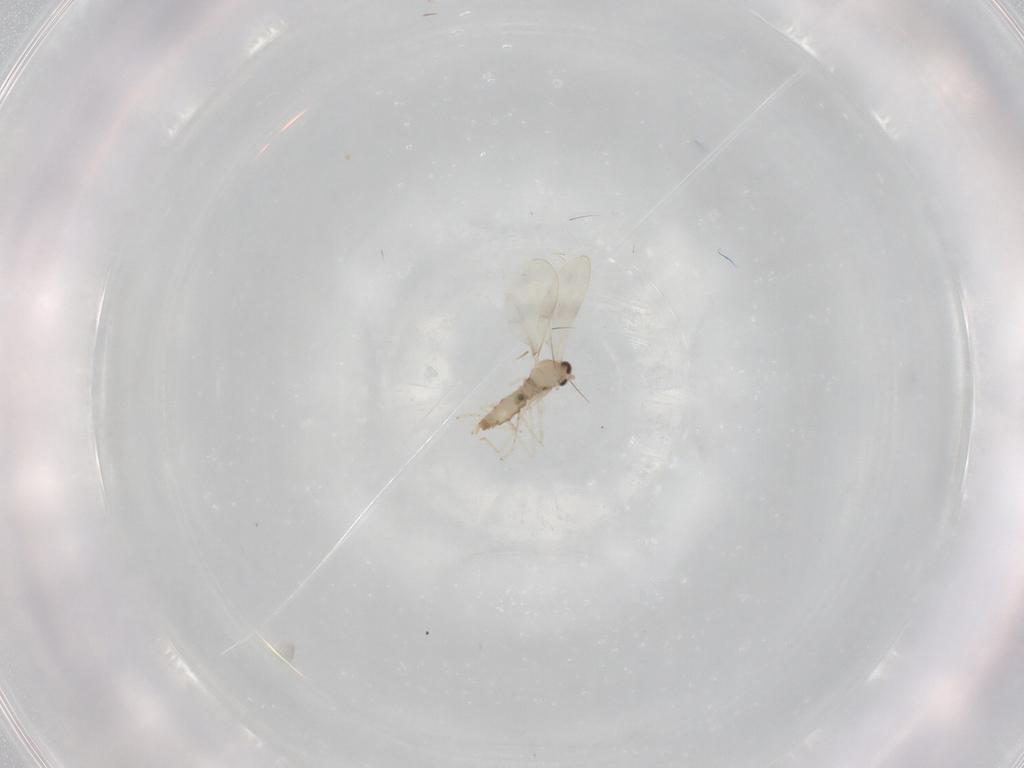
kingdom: Animalia
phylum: Arthropoda
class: Insecta
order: Diptera
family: Cecidomyiidae
